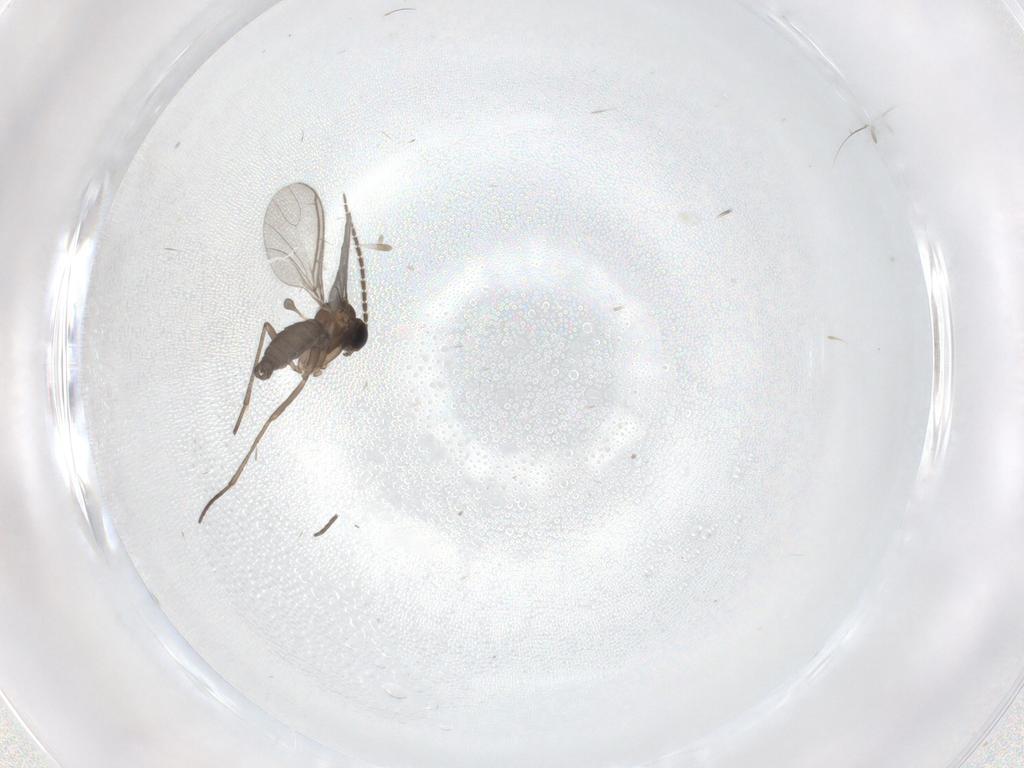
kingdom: Animalia
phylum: Arthropoda
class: Insecta
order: Diptera
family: Sciaridae
